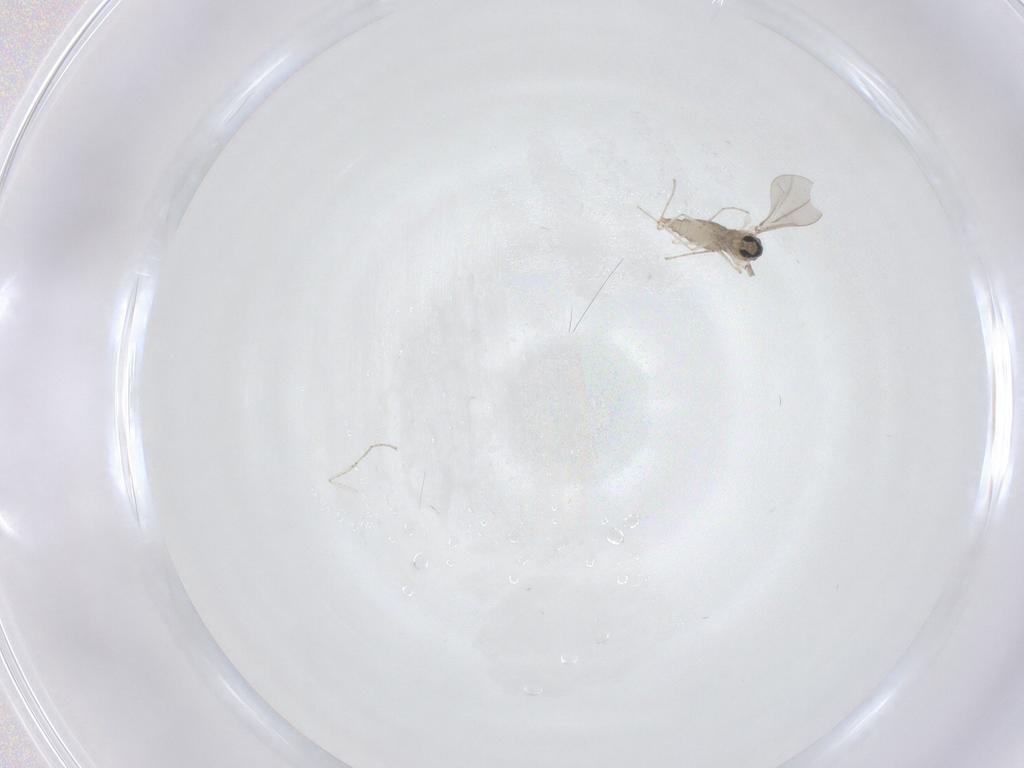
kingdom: Animalia
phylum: Arthropoda
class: Insecta
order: Diptera
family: Cecidomyiidae
